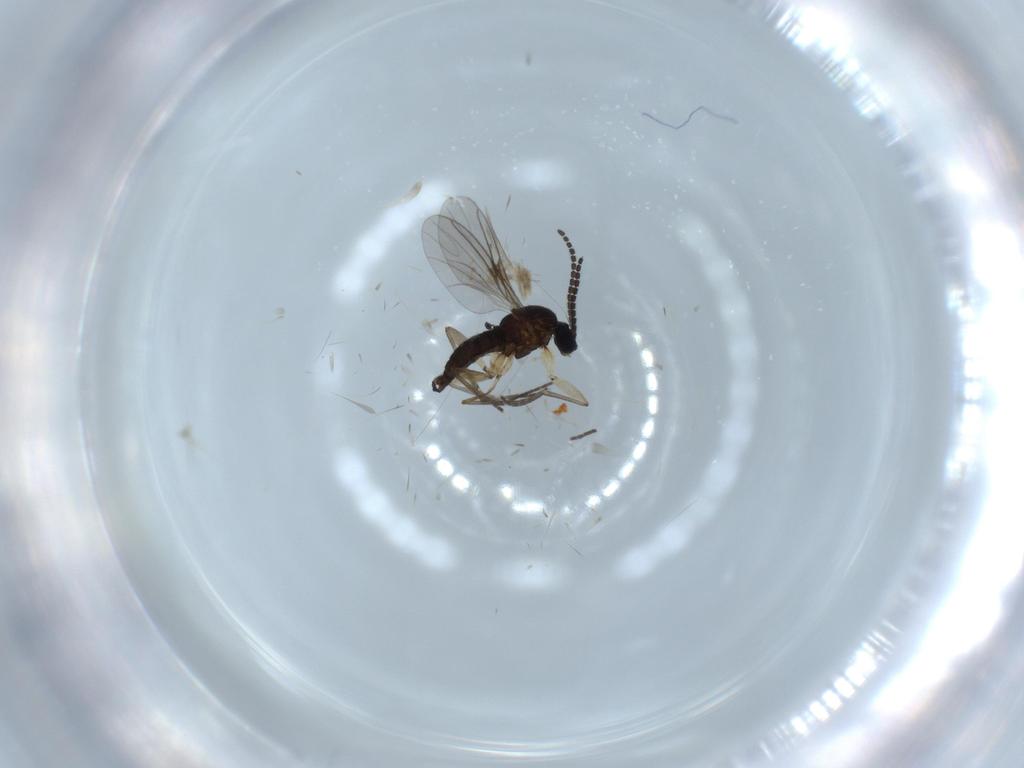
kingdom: Animalia
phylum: Arthropoda
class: Insecta
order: Diptera
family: Sciaridae
